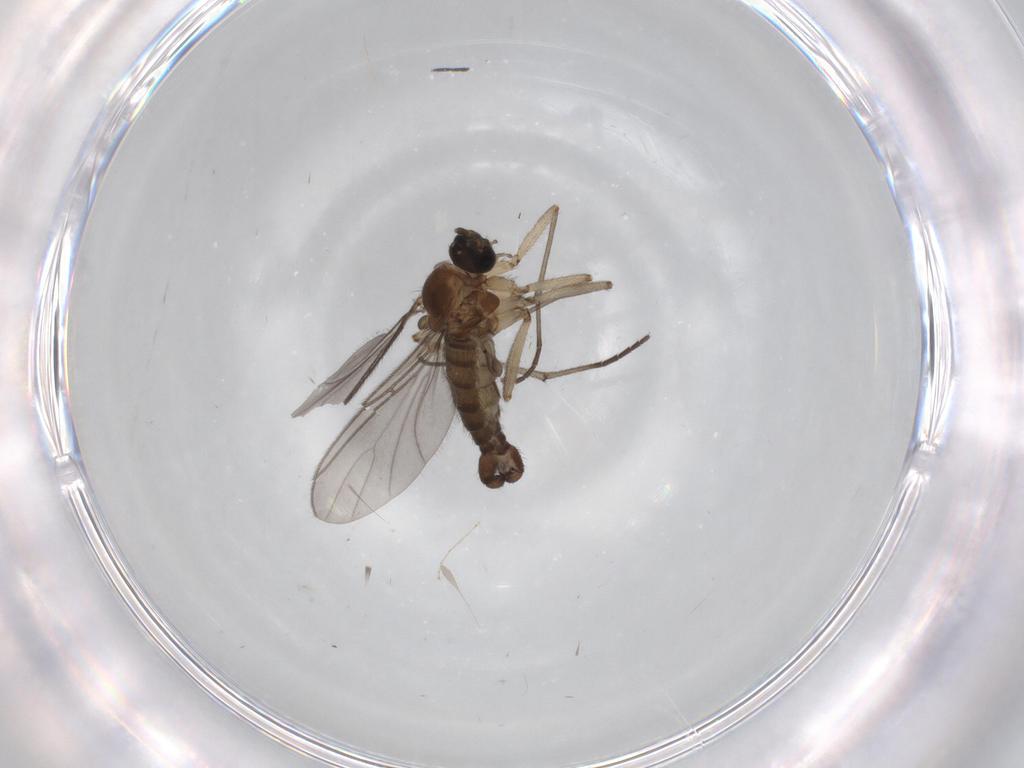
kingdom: Animalia
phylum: Arthropoda
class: Insecta
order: Diptera
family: Sciaridae
